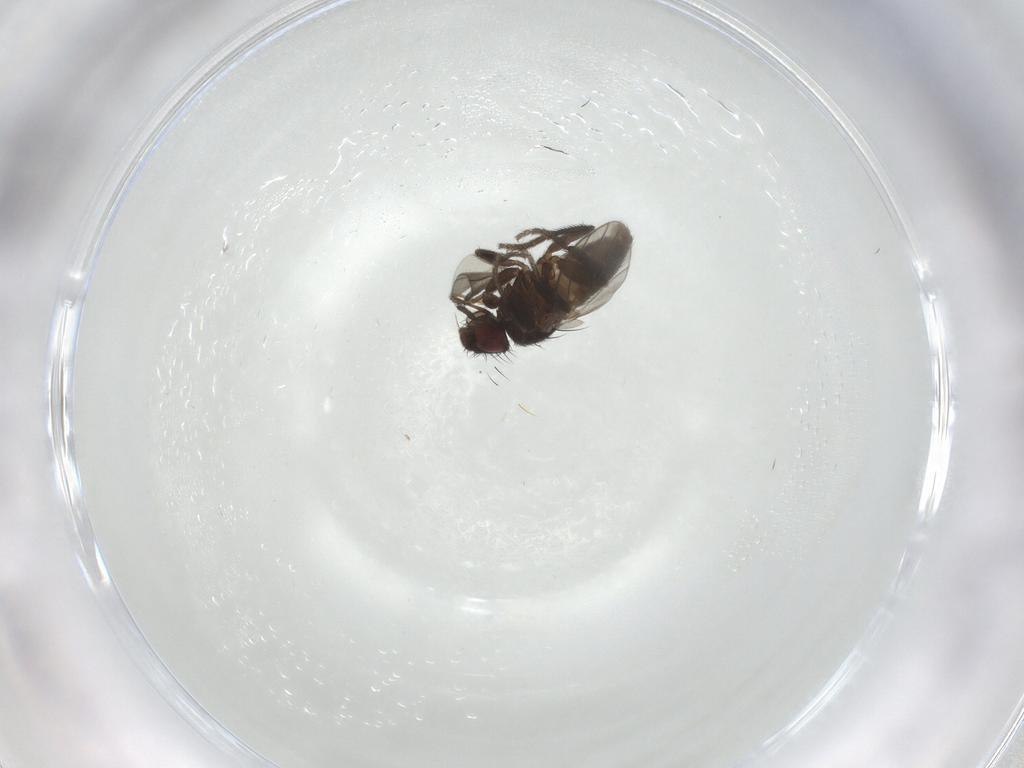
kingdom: Animalia
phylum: Arthropoda
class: Insecta
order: Diptera
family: Milichiidae
